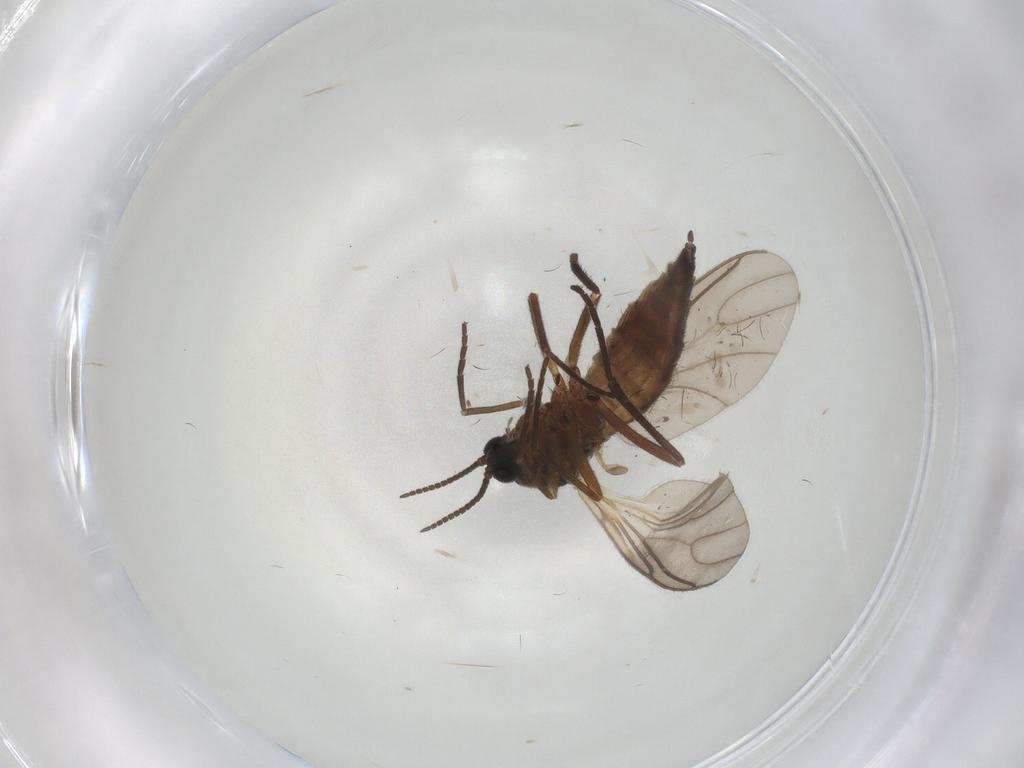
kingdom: Animalia
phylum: Arthropoda
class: Insecta
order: Diptera
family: Sciaridae
